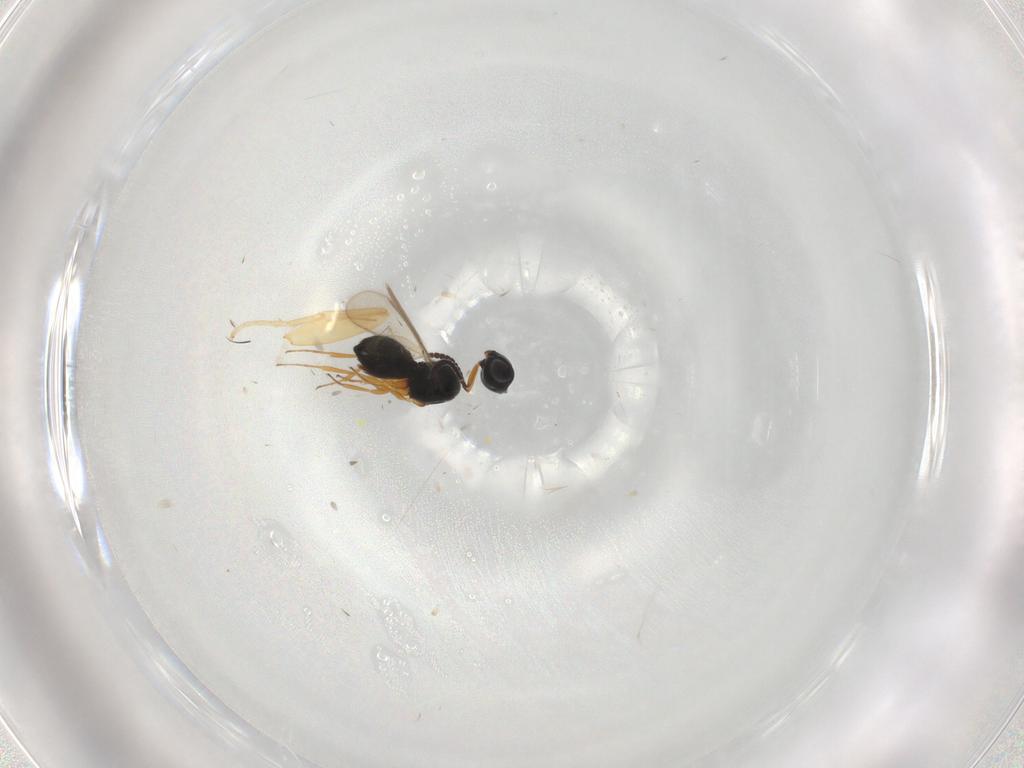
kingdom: Animalia
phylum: Arthropoda
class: Insecta
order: Hymenoptera
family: Scelionidae
